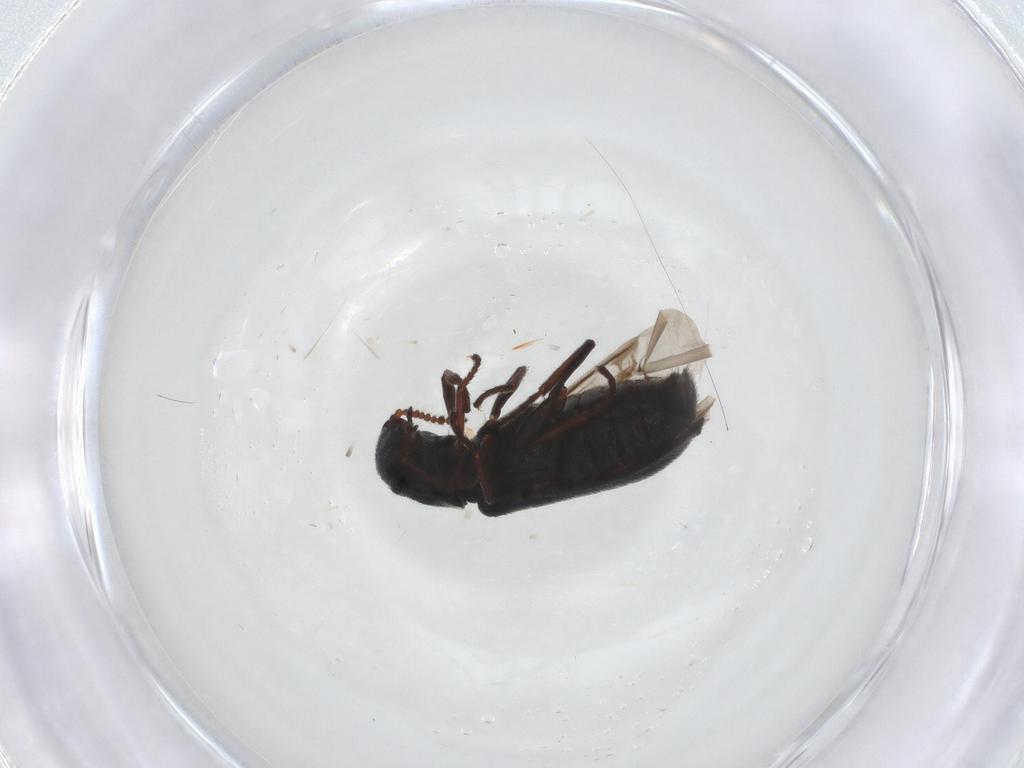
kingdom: Animalia
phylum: Arthropoda
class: Insecta
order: Coleoptera
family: Melyridae
